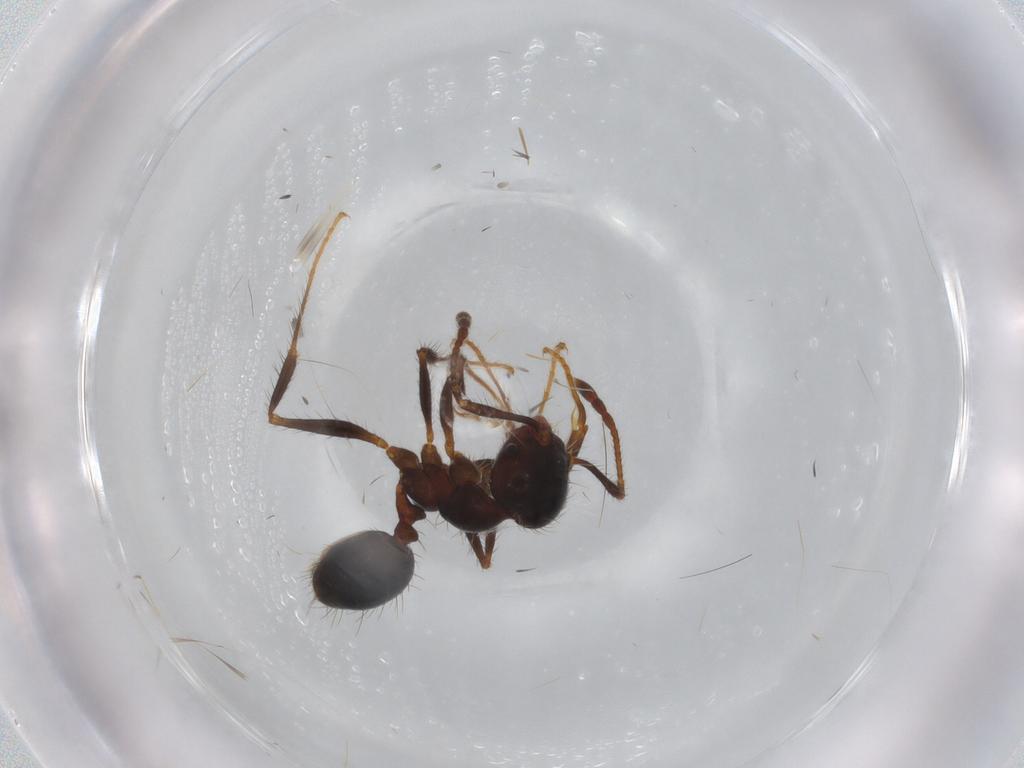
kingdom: Animalia
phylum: Arthropoda
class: Insecta
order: Hymenoptera
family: Formicidae
